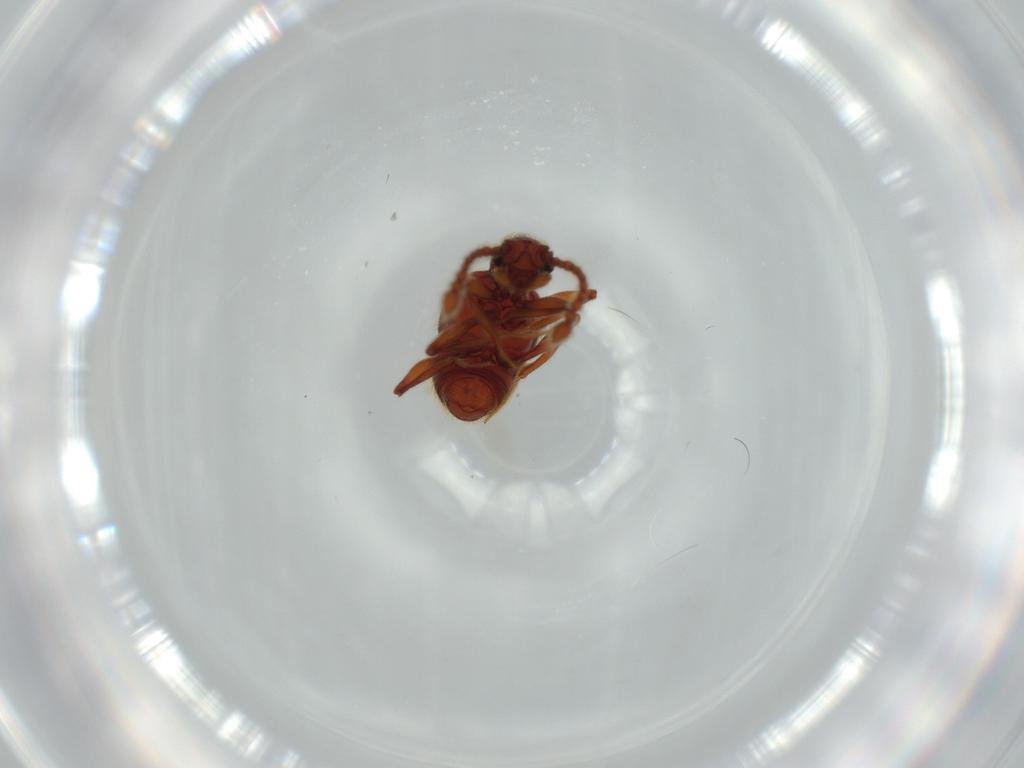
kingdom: Animalia
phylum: Arthropoda
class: Insecta
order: Coleoptera
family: Staphylinidae
